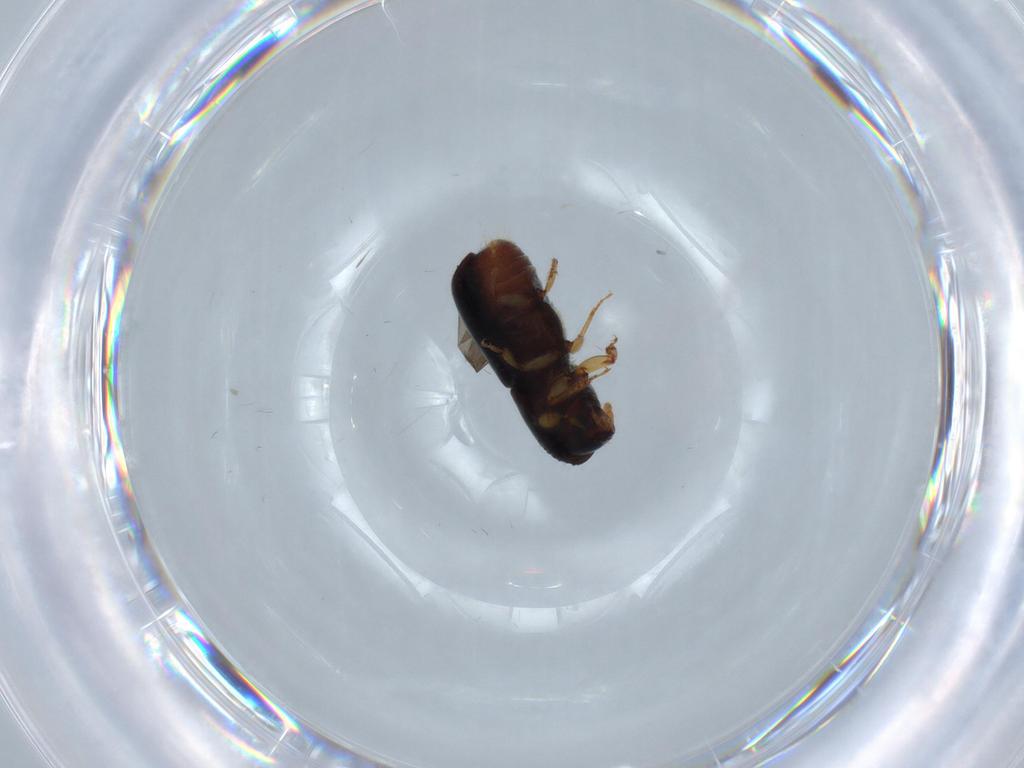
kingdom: Animalia
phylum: Arthropoda
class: Insecta
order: Coleoptera
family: Curculionidae
